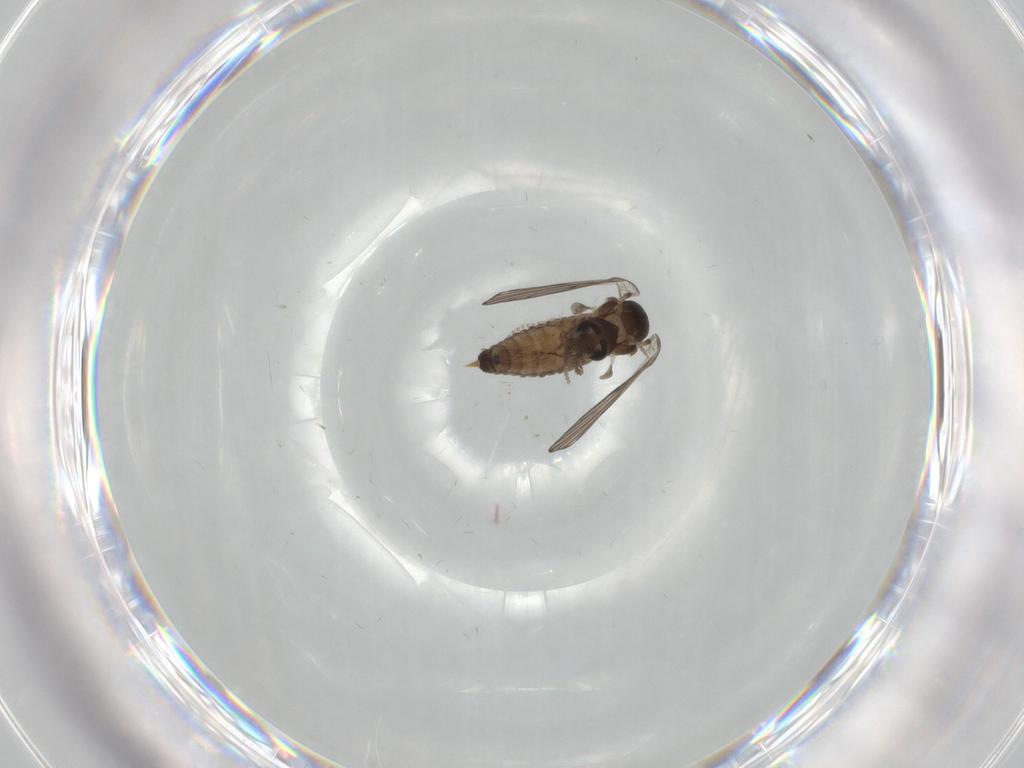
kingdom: Animalia
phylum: Arthropoda
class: Insecta
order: Diptera
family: Psychodidae
